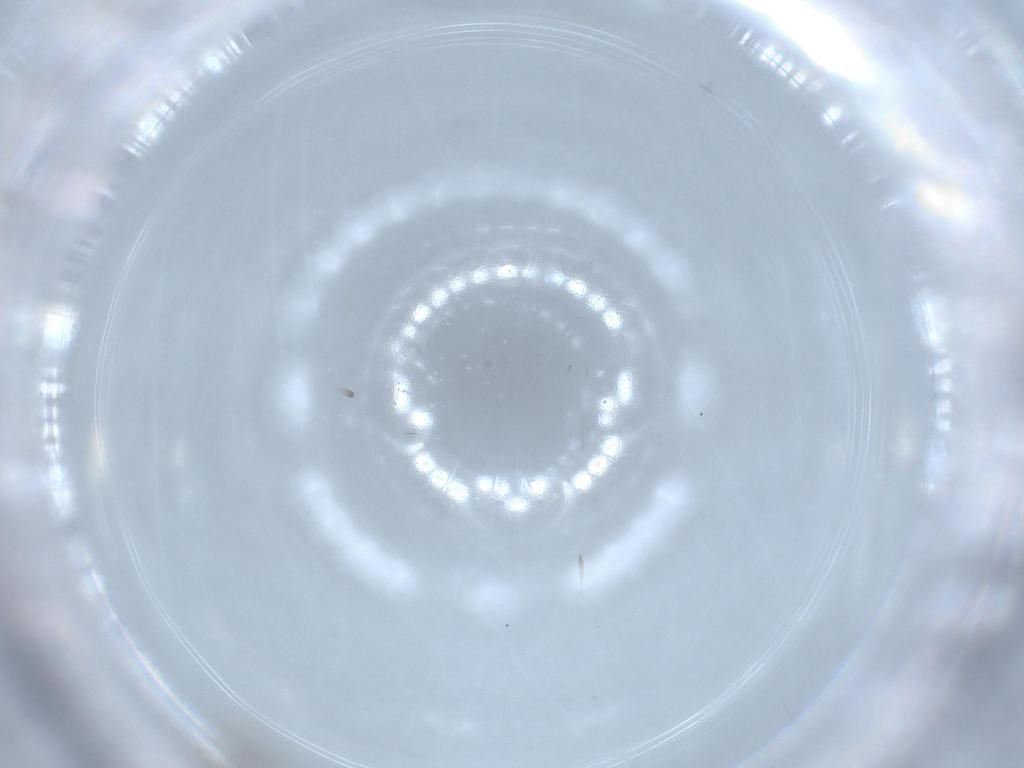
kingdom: Animalia
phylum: Arthropoda
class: Insecta
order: Diptera
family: Cecidomyiidae
